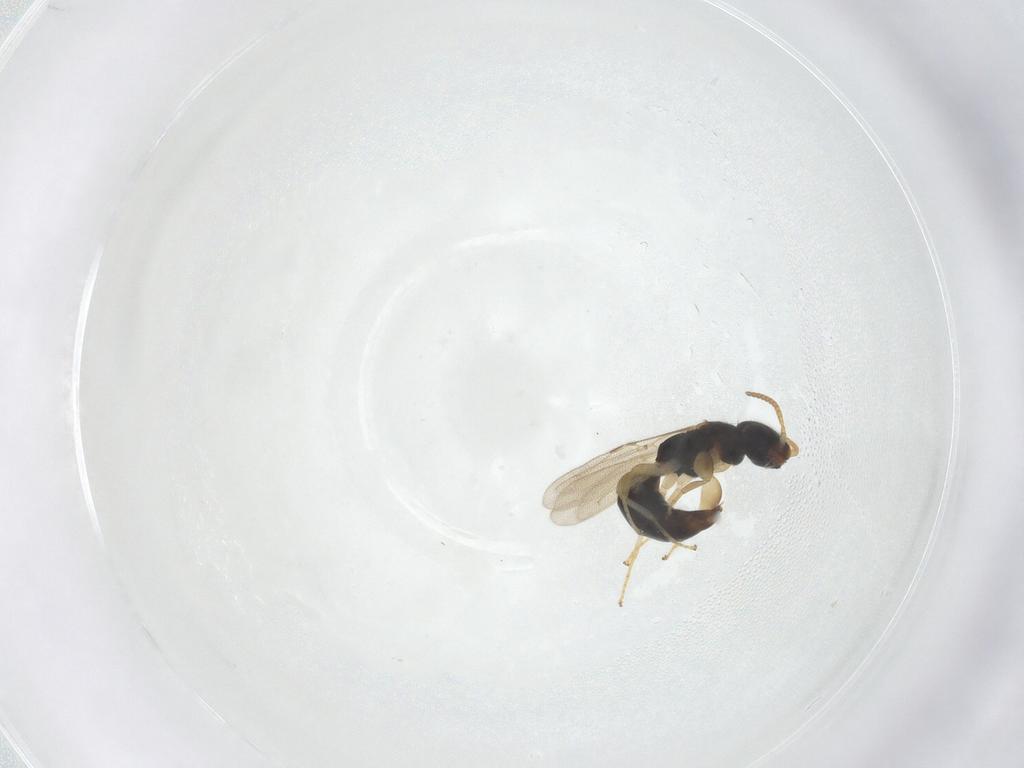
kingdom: Animalia
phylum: Arthropoda
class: Insecta
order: Hymenoptera
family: Bethylidae
